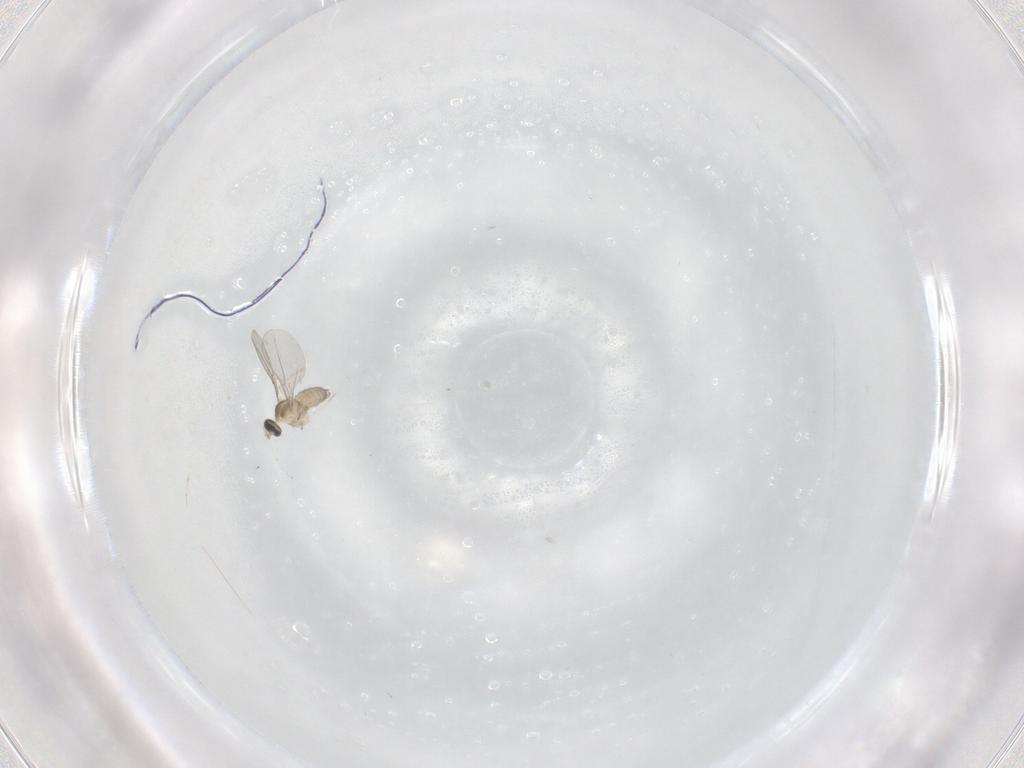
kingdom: Animalia
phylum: Arthropoda
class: Insecta
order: Diptera
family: Cecidomyiidae
